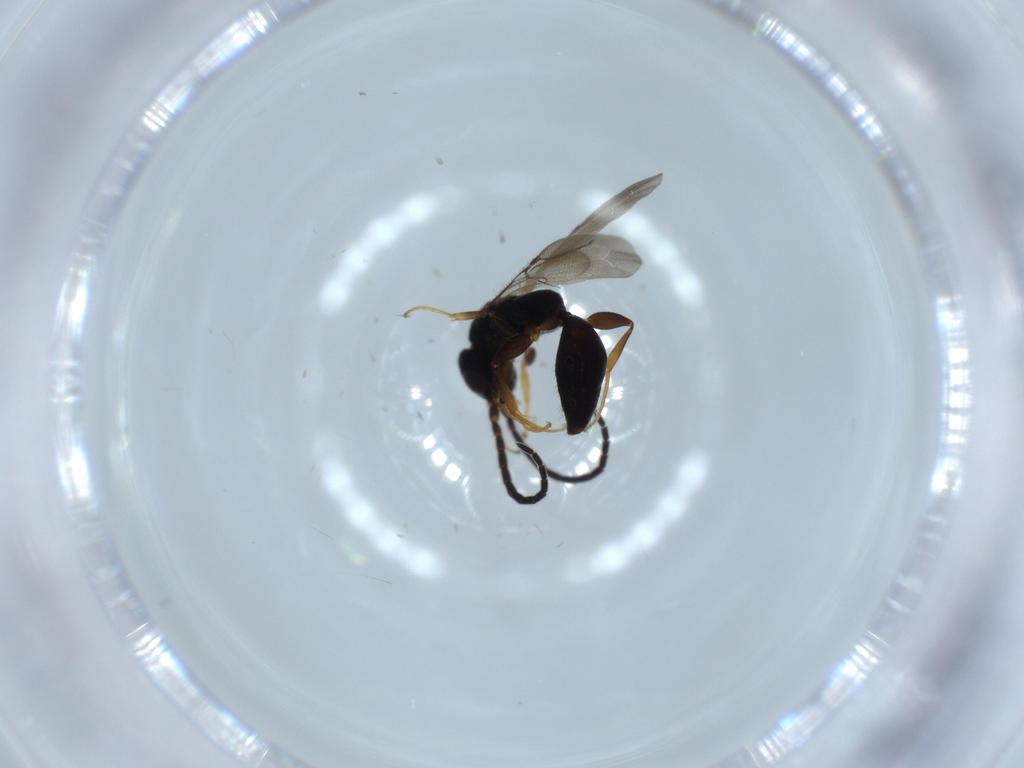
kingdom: Animalia
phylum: Arthropoda
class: Insecta
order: Hymenoptera
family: Bethylidae
